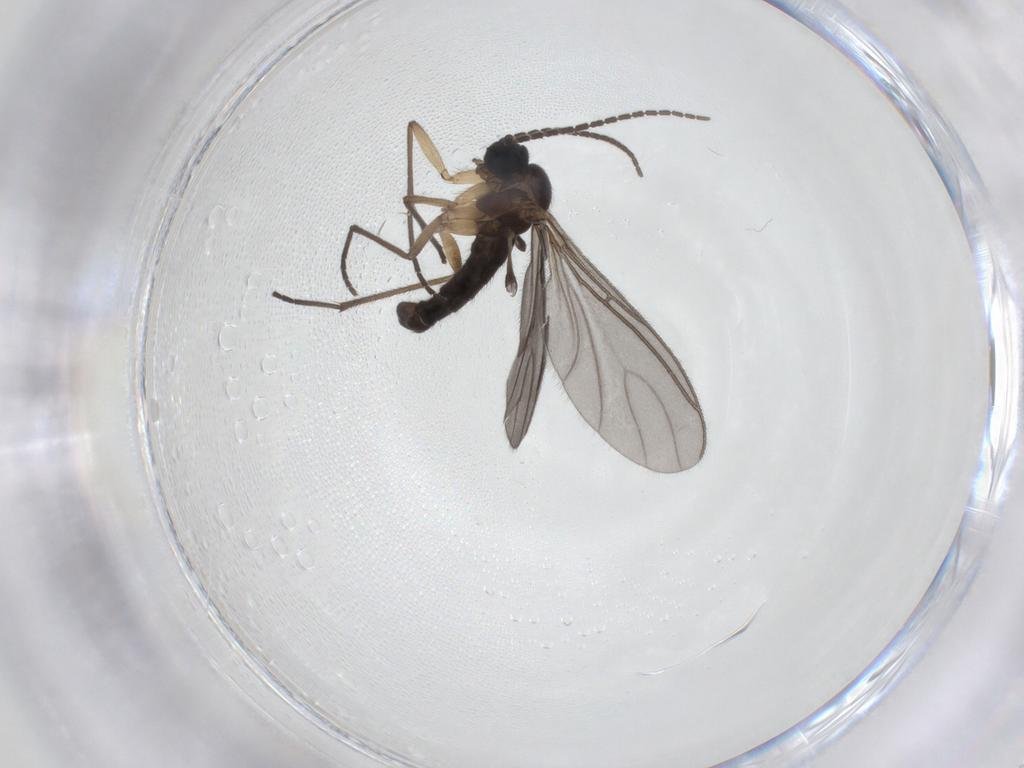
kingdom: Animalia
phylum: Arthropoda
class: Insecta
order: Diptera
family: Sciaridae
